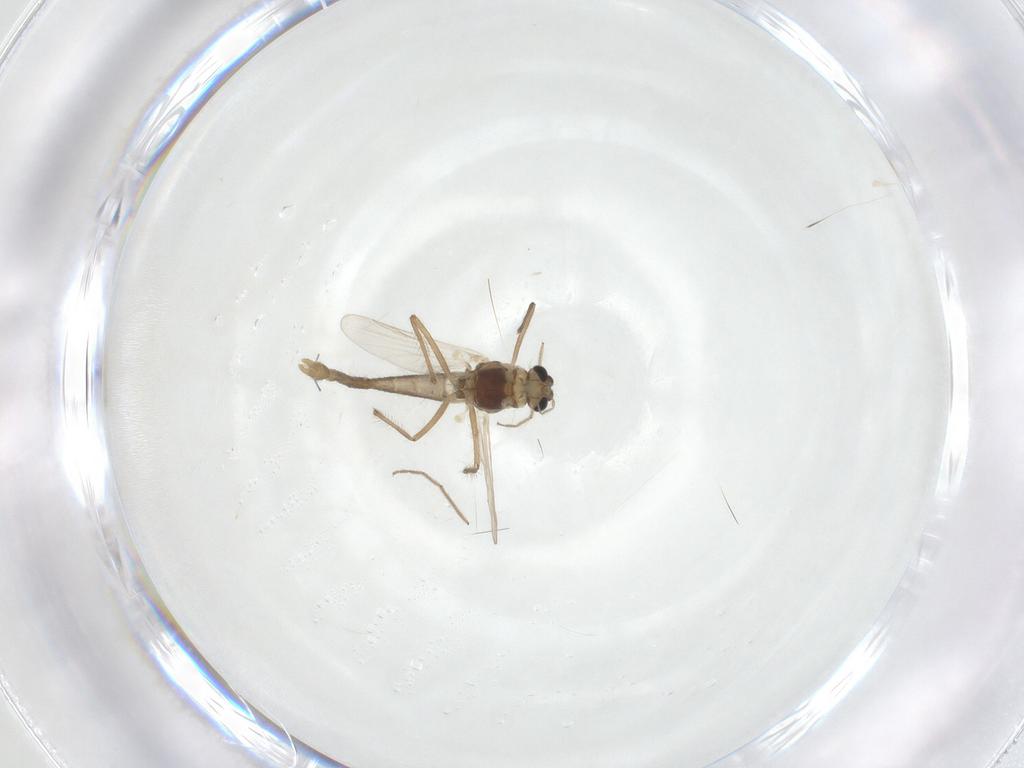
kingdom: Animalia
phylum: Arthropoda
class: Insecta
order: Diptera
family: Chironomidae
